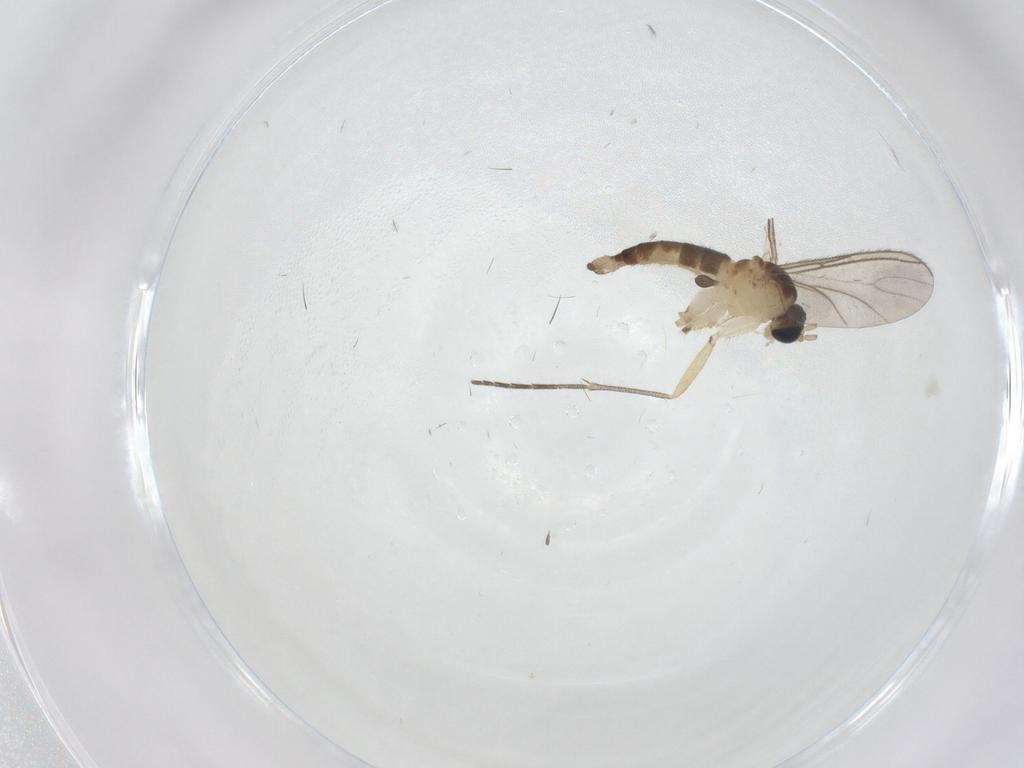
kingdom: Animalia
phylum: Arthropoda
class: Insecta
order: Diptera
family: Sciaridae
